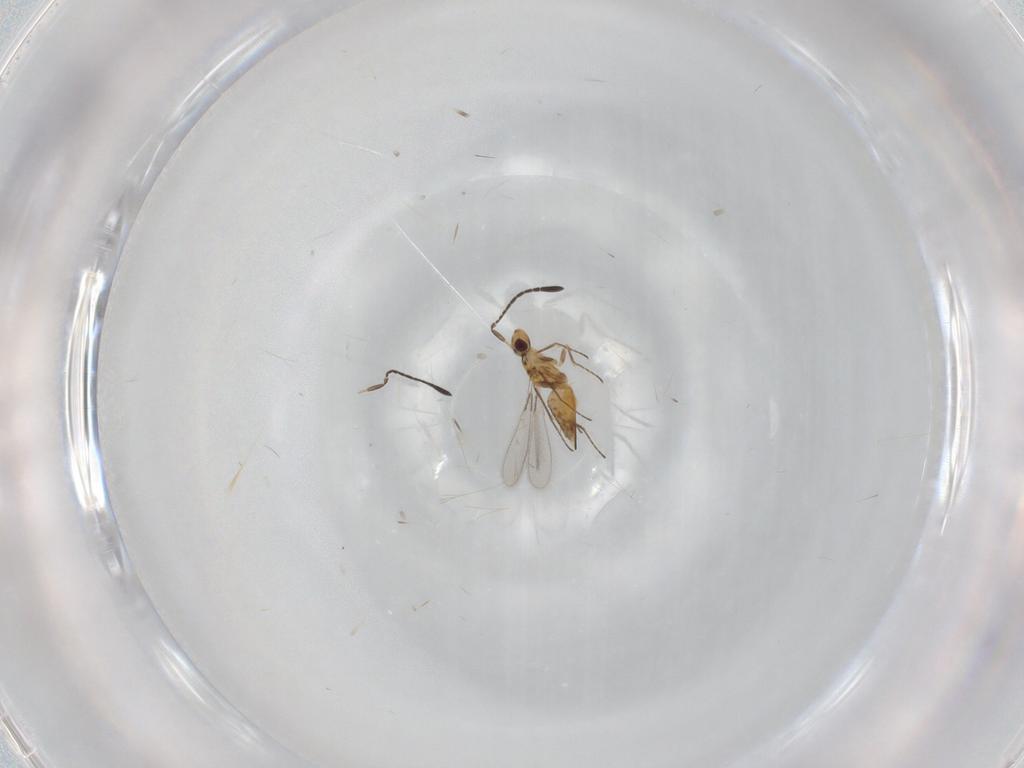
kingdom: Animalia
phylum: Arthropoda
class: Insecta
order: Hymenoptera
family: Mymaridae
